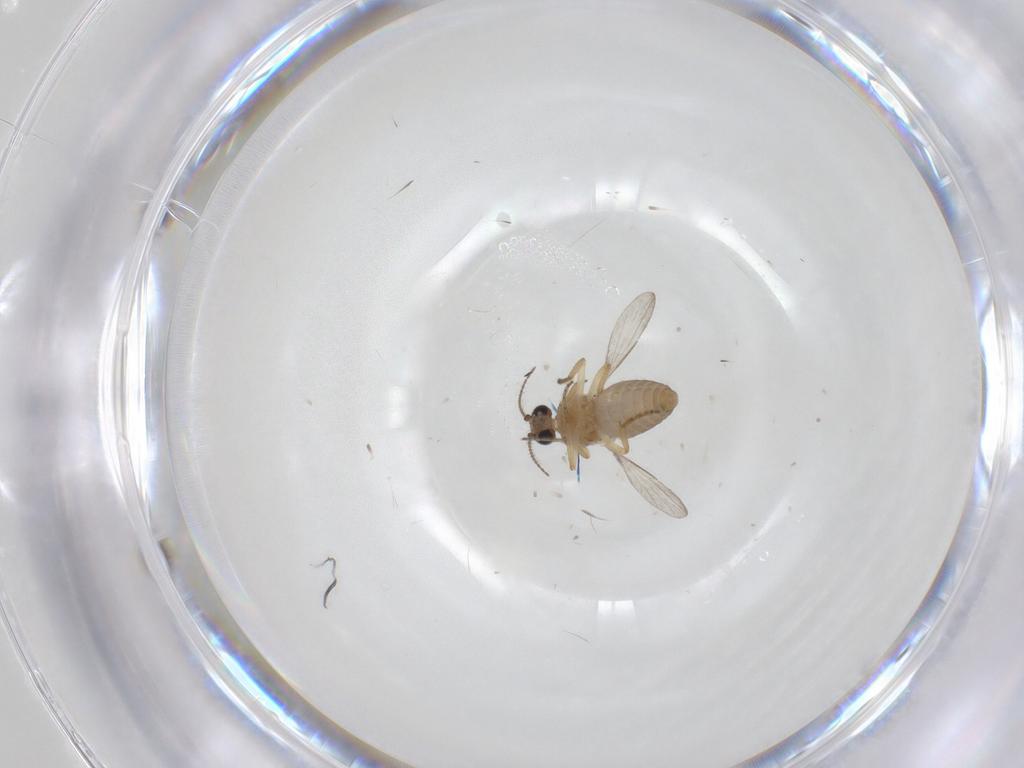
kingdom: Animalia
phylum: Arthropoda
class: Insecta
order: Diptera
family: Ceratopogonidae
